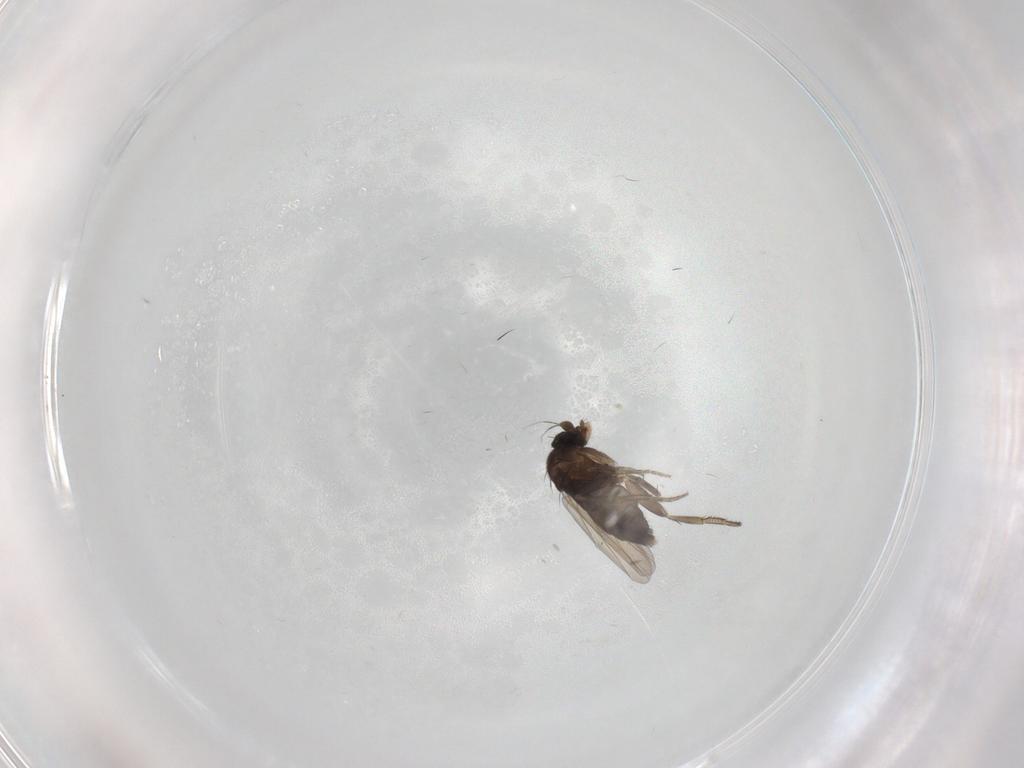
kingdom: Animalia
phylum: Arthropoda
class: Insecta
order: Diptera
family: Phoridae
